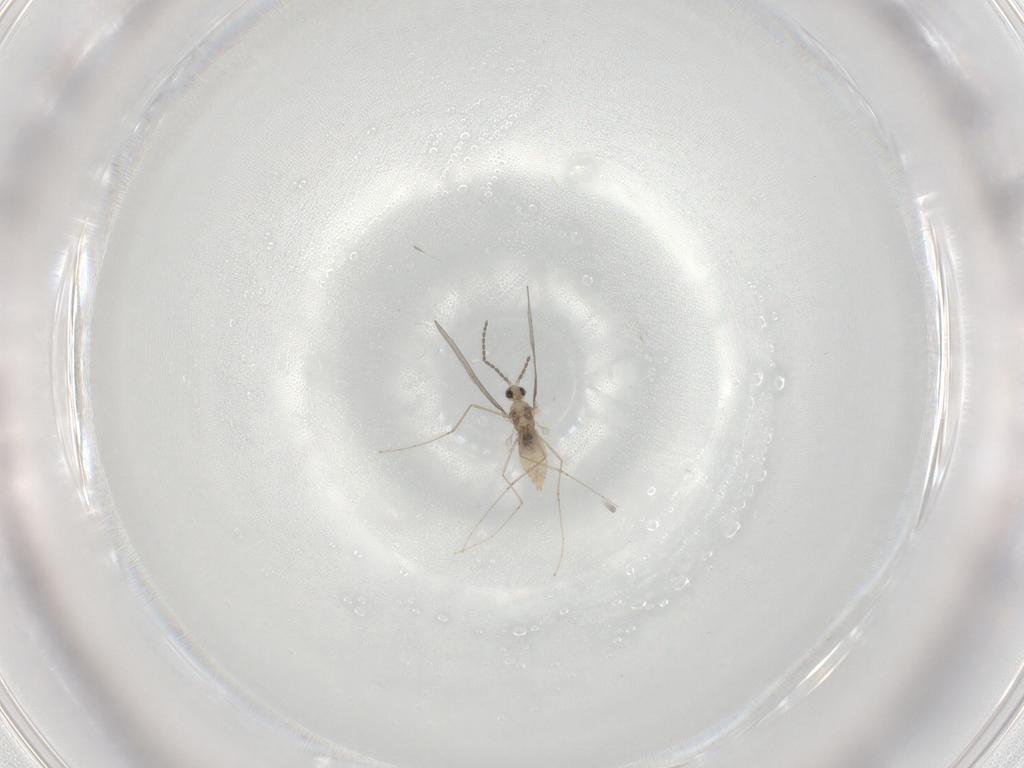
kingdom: Animalia
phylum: Arthropoda
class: Insecta
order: Diptera
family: Cecidomyiidae
